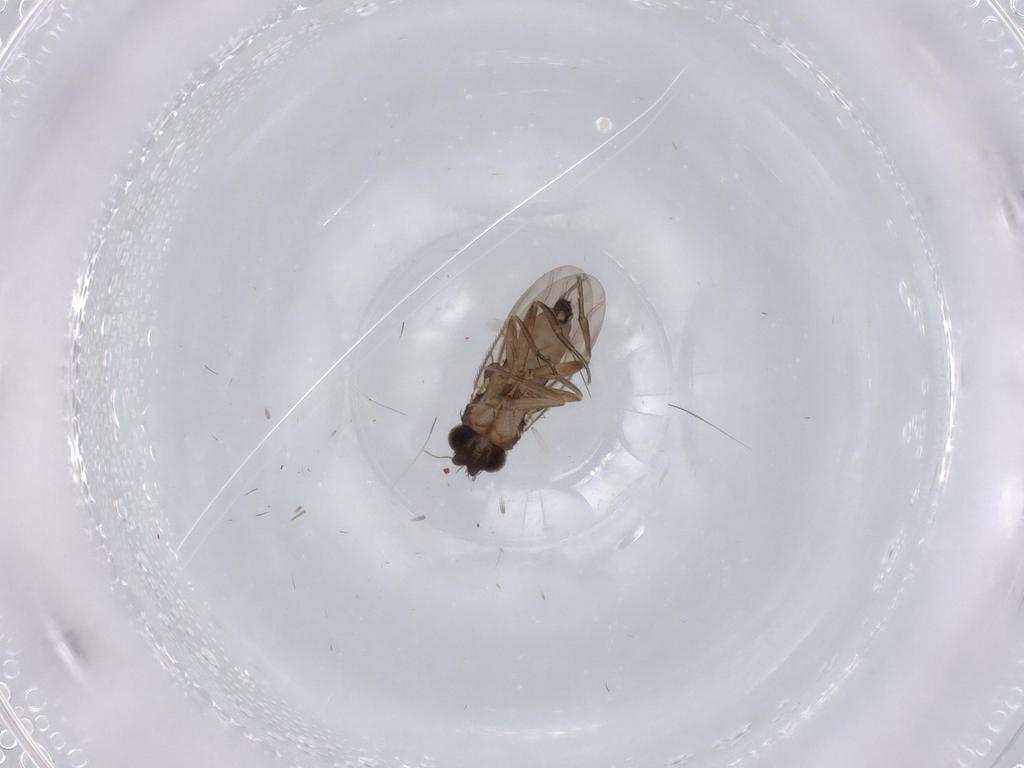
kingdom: Animalia
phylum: Arthropoda
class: Insecta
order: Diptera
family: Phoridae
